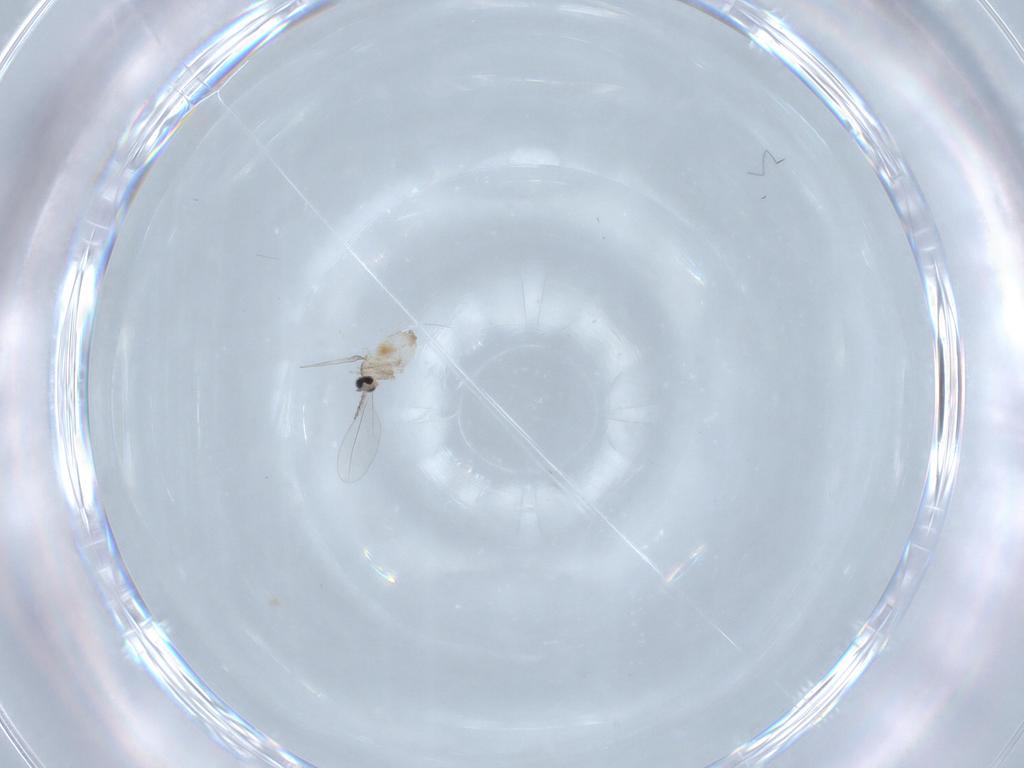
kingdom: Animalia
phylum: Arthropoda
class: Insecta
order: Diptera
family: Cecidomyiidae
